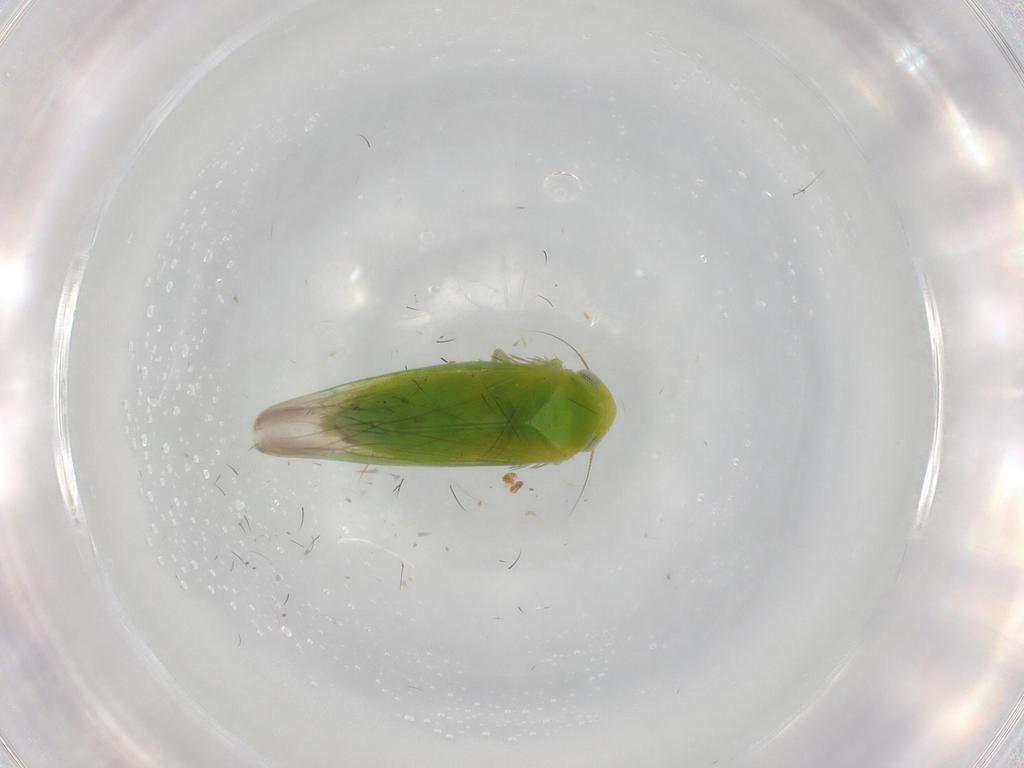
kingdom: Animalia
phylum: Arthropoda
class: Insecta
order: Hemiptera
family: Cicadellidae
